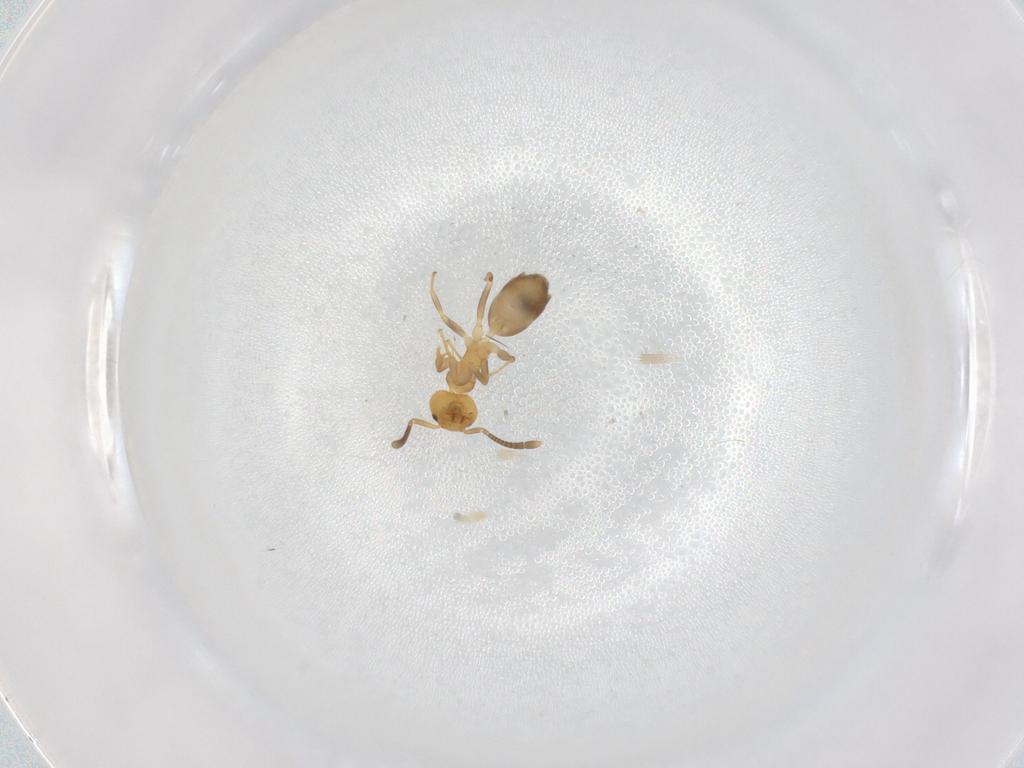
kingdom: Animalia
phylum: Arthropoda
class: Insecta
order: Hymenoptera
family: Formicidae
